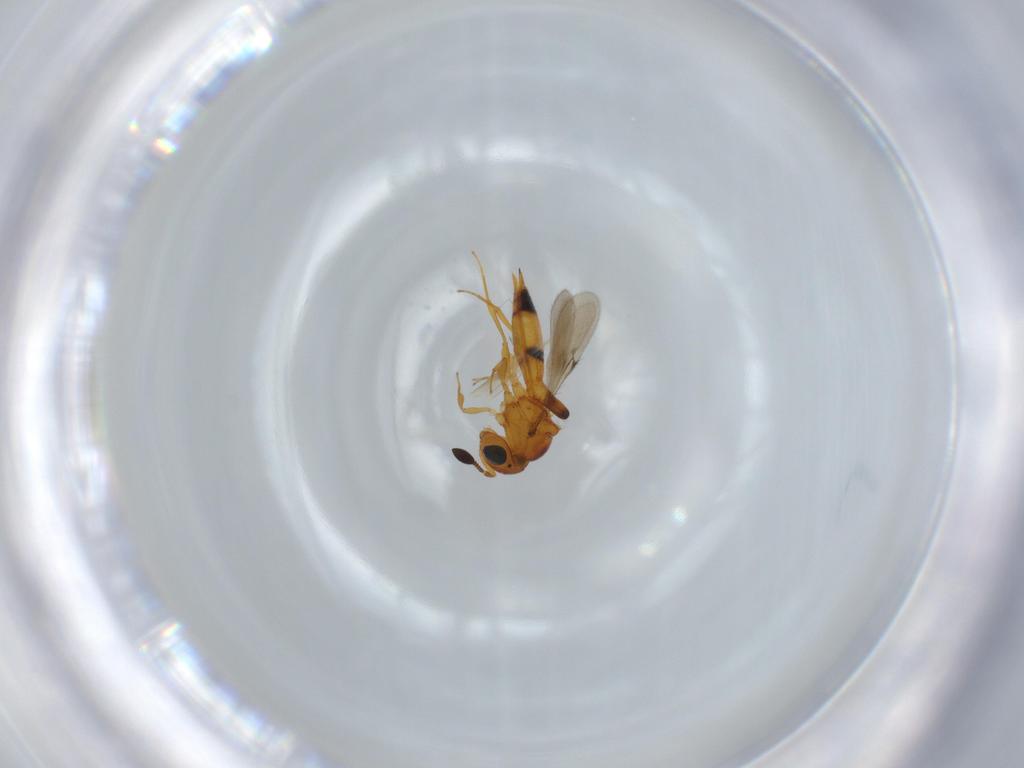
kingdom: Animalia
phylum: Arthropoda
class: Insecta
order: Hymenoptera
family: Scelionidae
